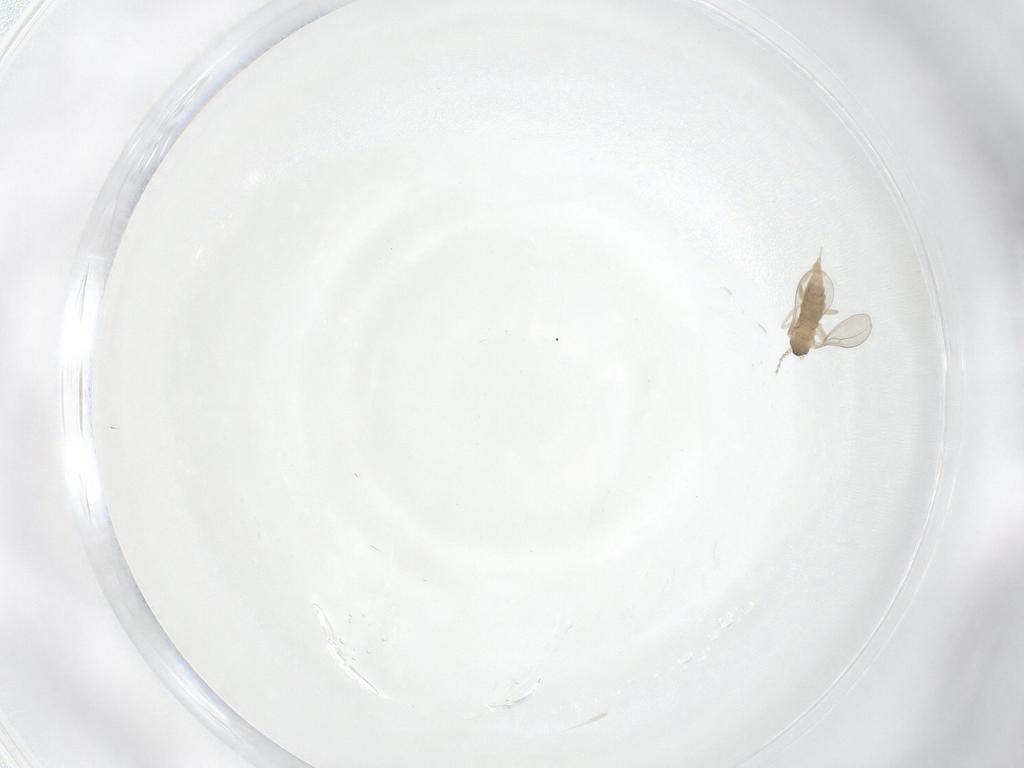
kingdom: Animalia
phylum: Arthropoda
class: Insecta
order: Diptera
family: Cecidomyiidae
